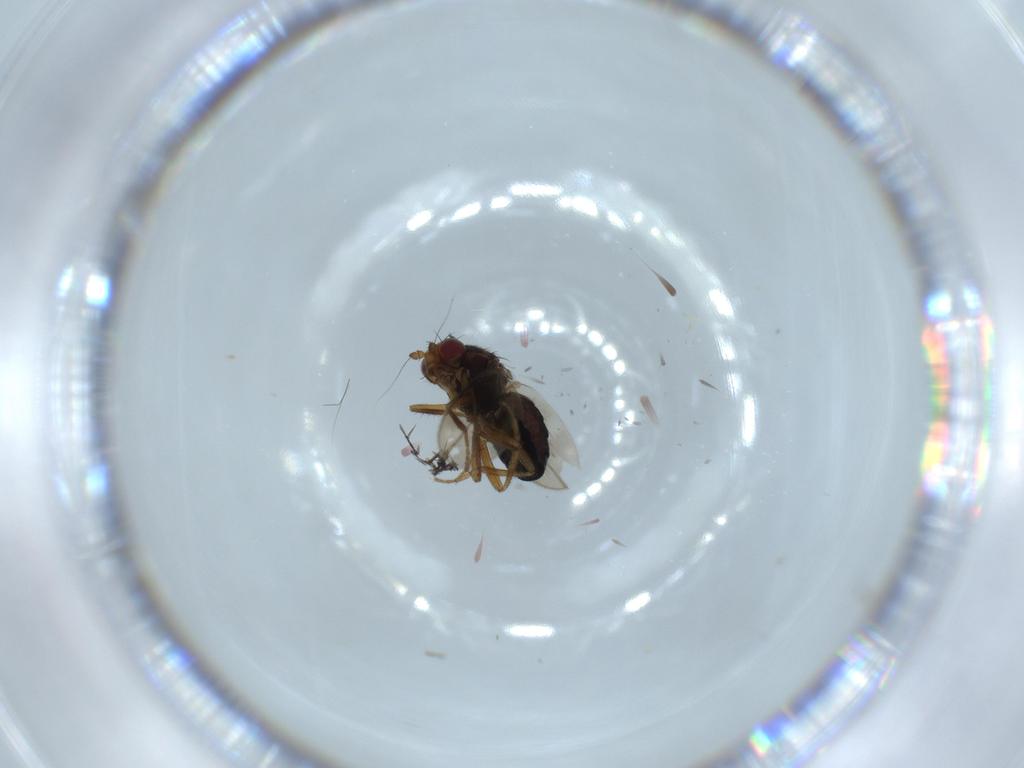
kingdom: Animalia
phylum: Arthropoda
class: Insecta
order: Diptera
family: Sphaeroceridae
